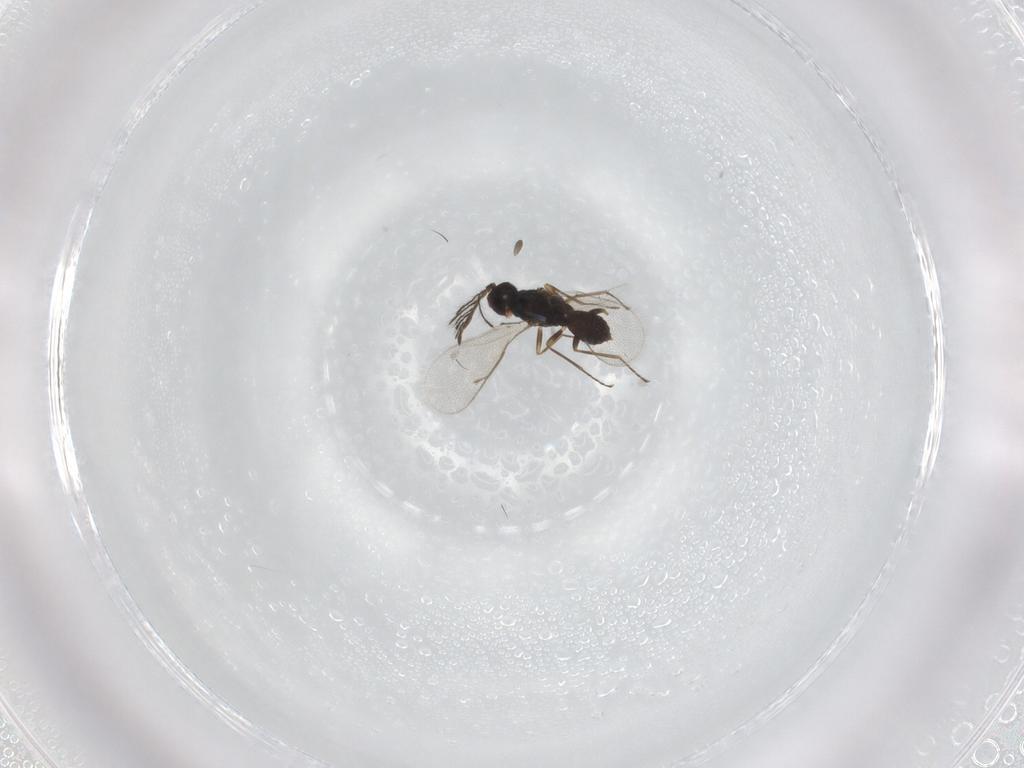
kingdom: Animalia
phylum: Arthropoda
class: Insecta
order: Hymenoptera
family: Eulophidae
